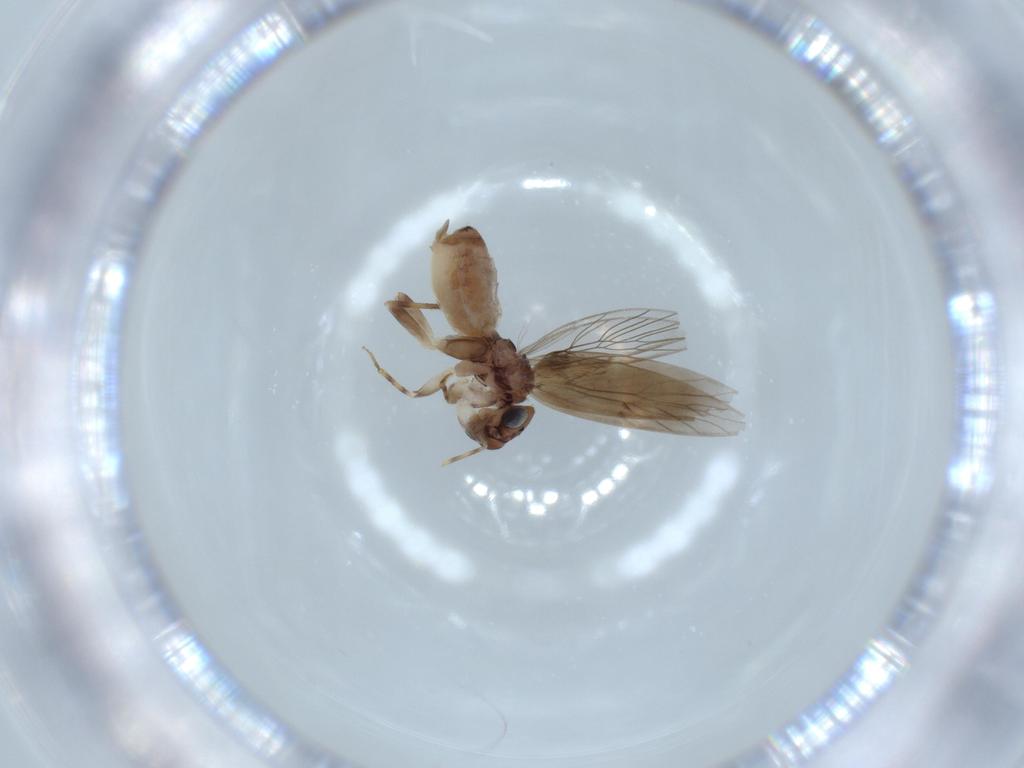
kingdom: Animalia
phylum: Arthropoda
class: Insecta
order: Psocodea
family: Lepidopsocidae
